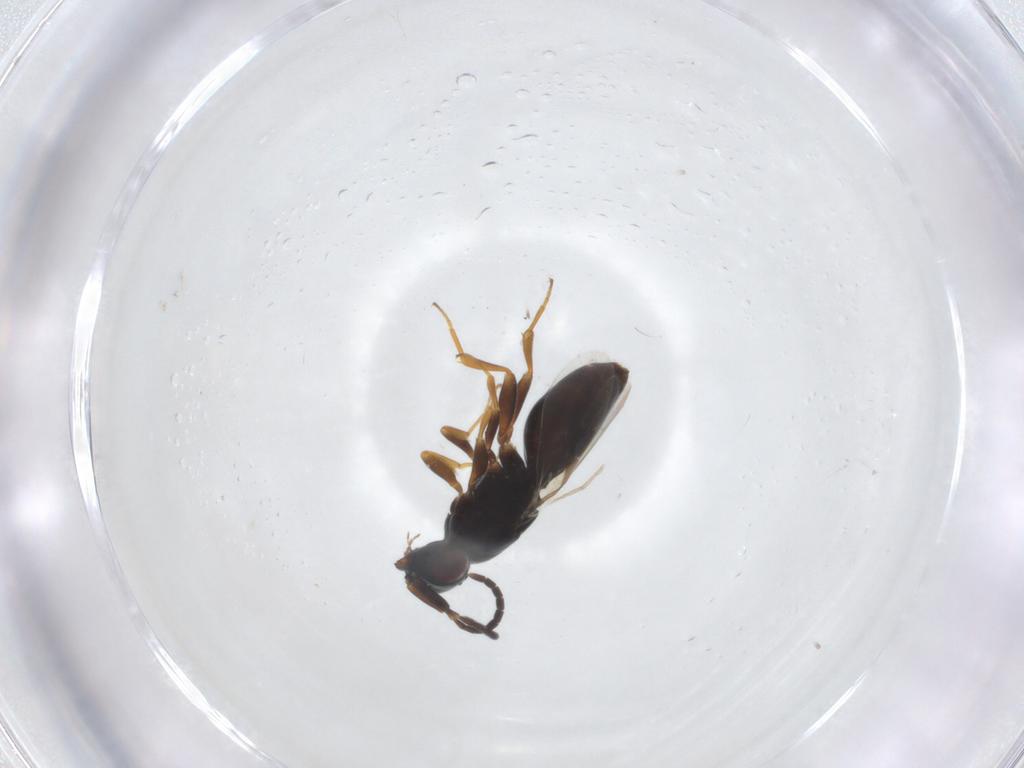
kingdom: Animalia
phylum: Arthropoda
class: Insecta
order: Hymenoptera
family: Megaspilidae
